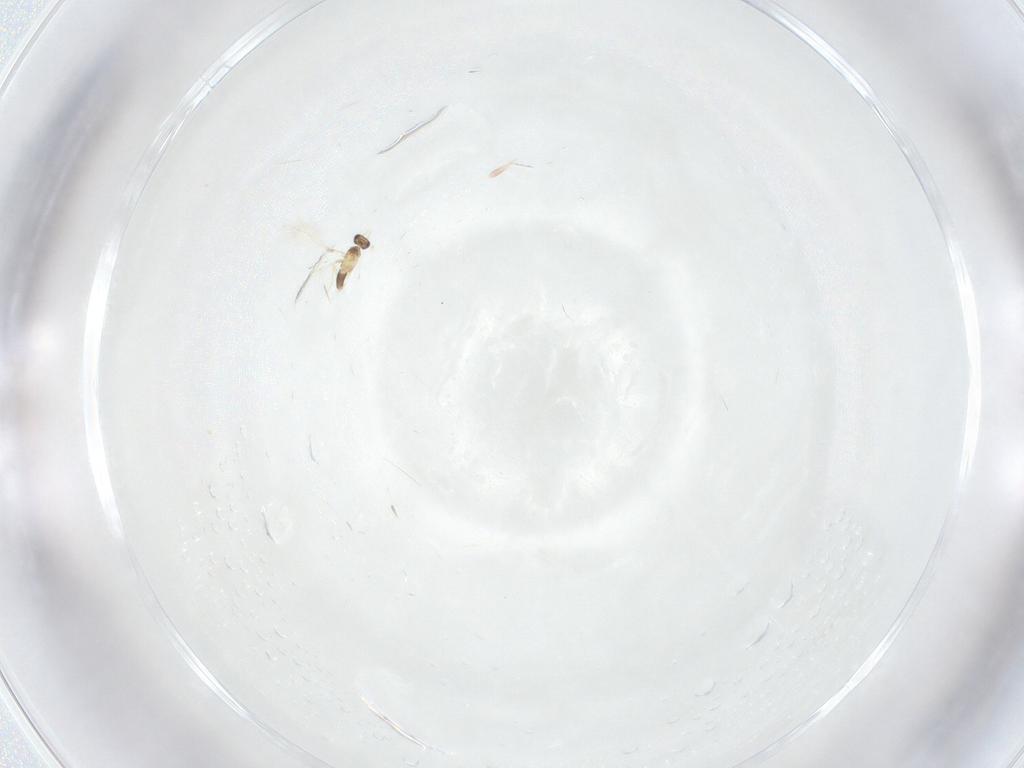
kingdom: Animalia
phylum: Arthropoda
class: Insecta
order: Hymenoptera
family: Mymaridae
